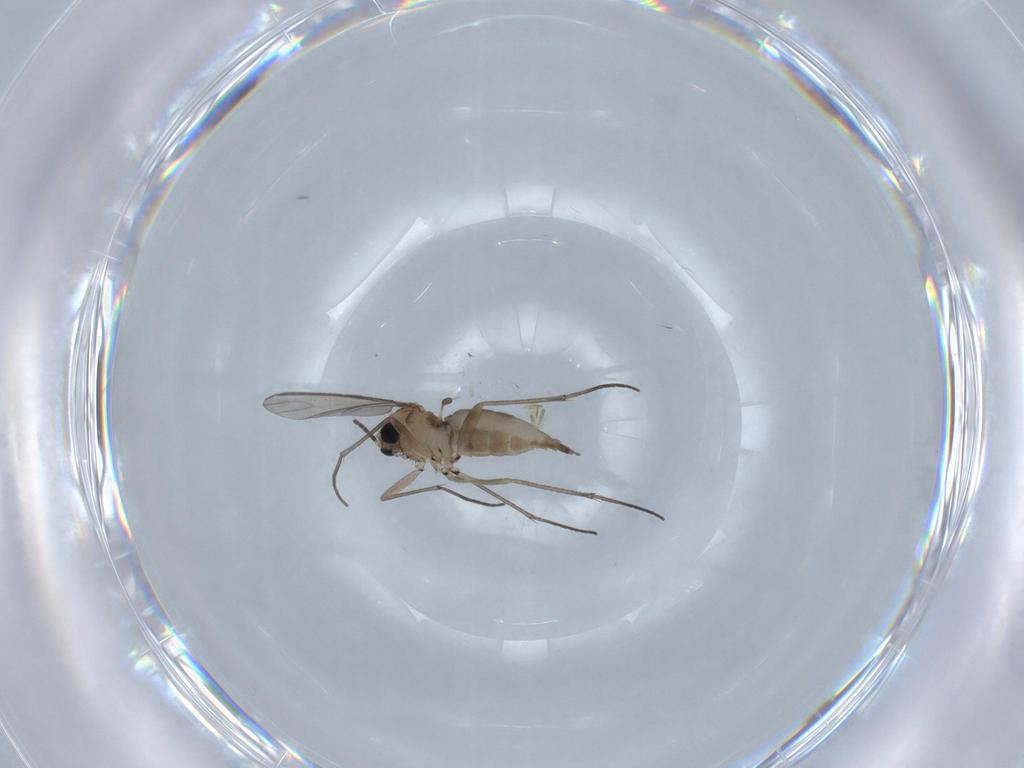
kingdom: Animalia
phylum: Arthropoda
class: Insecta
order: Diptera
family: Sciaridae
